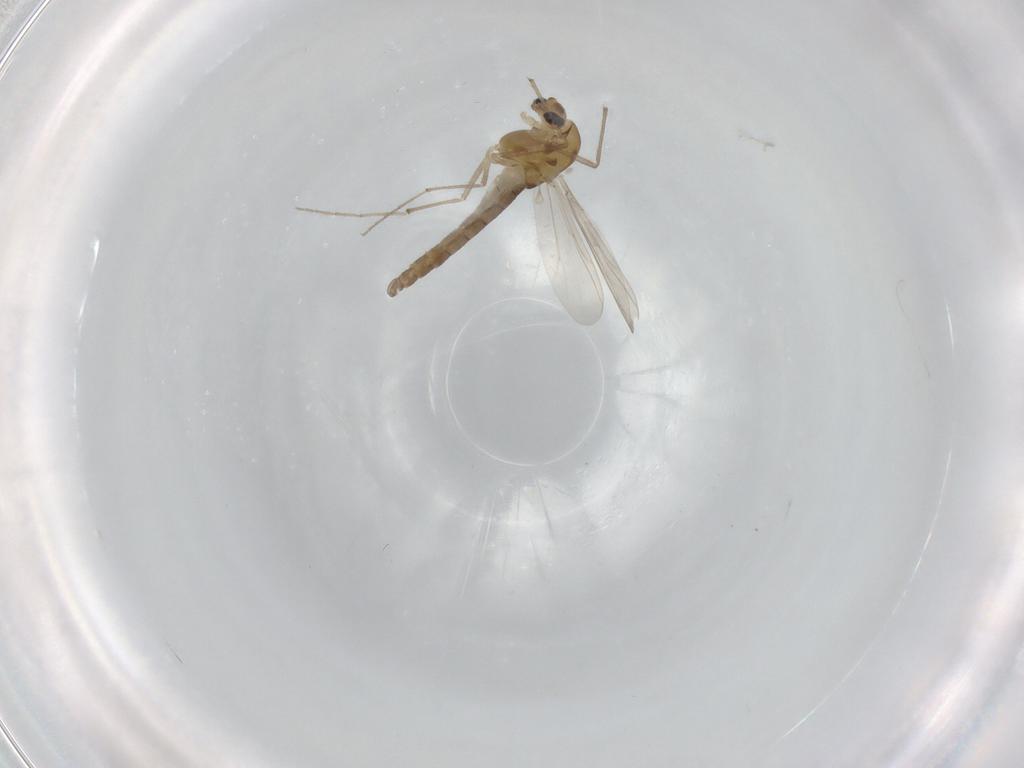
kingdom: Animalia
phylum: Arthropoda
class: Insecta
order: Diptera
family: Chironomidae
